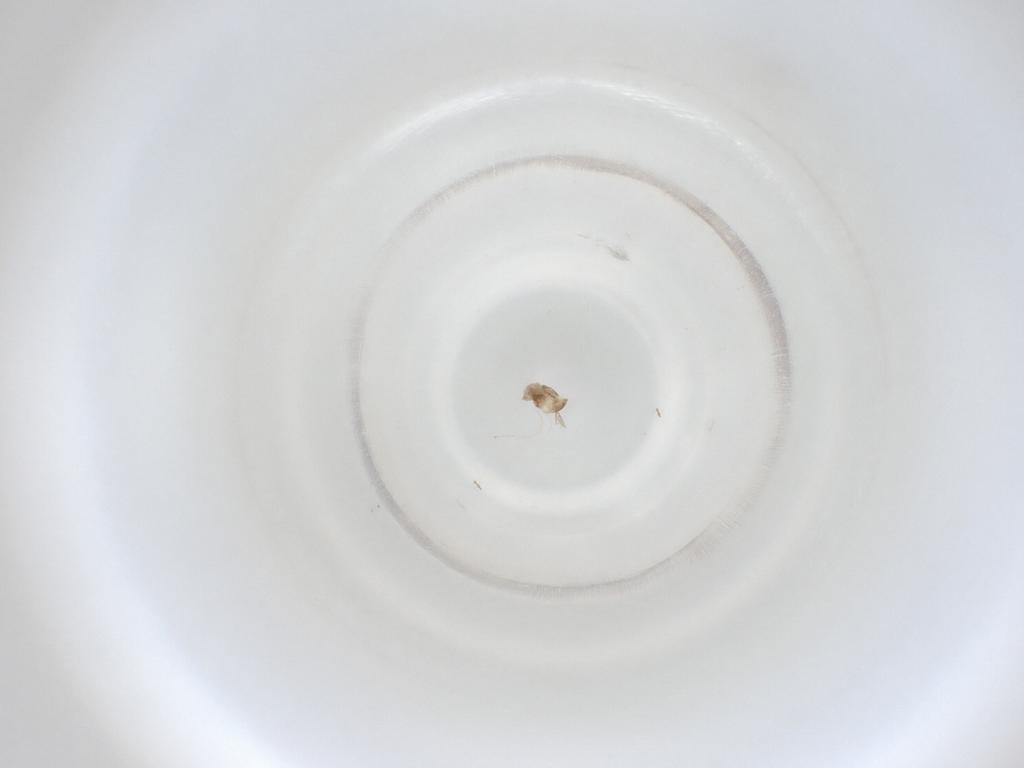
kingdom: Animalia
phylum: Arthropoda
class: Insecta
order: Diptera
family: Cecidomyiidae
